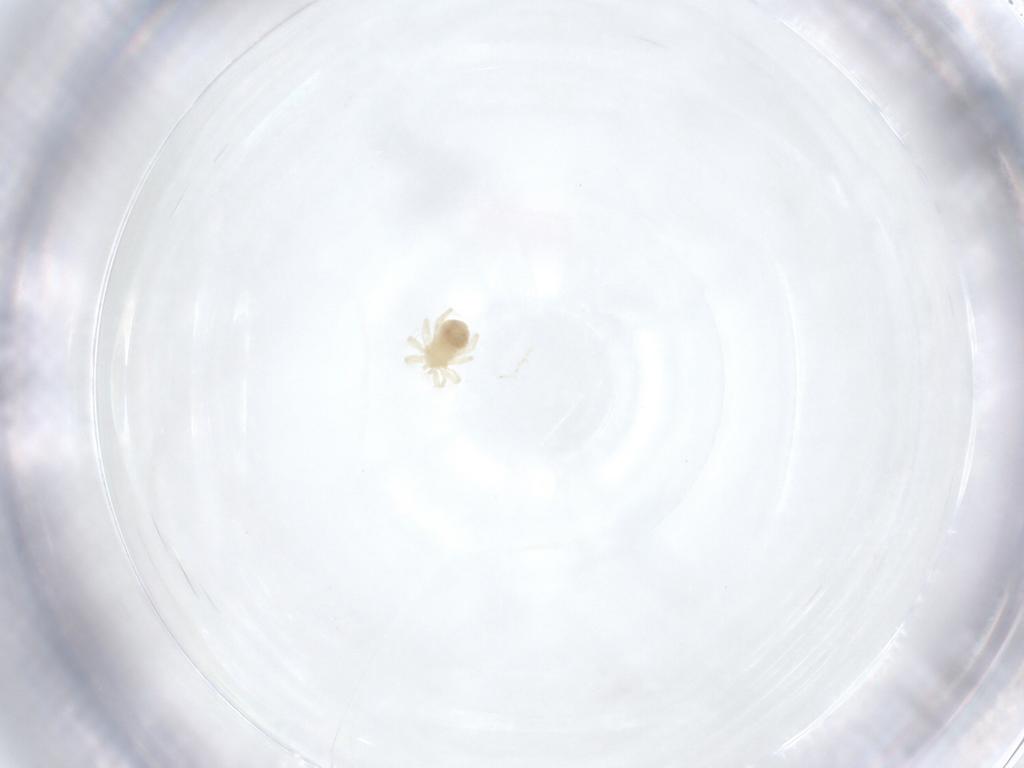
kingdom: Animalia
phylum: Arthropoda
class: Arachnida
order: Trombidiformes
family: Anystidae
